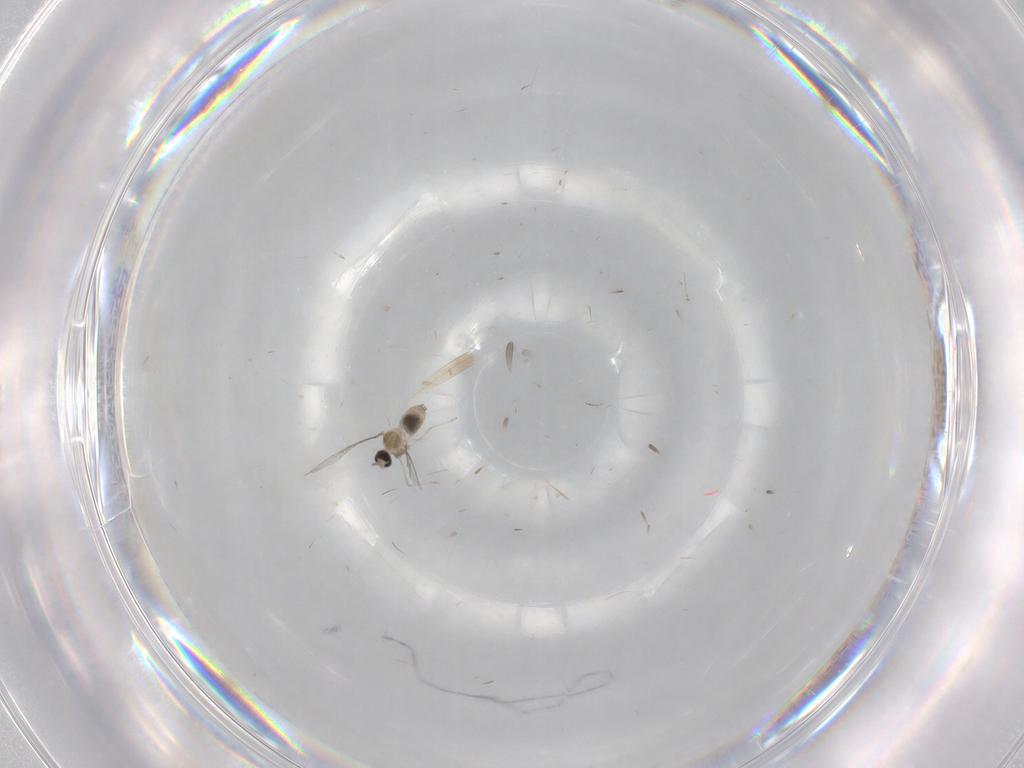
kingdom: Animalia
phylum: Arthropoda
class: Insecta
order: Diptera
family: Cecidomyiidae
